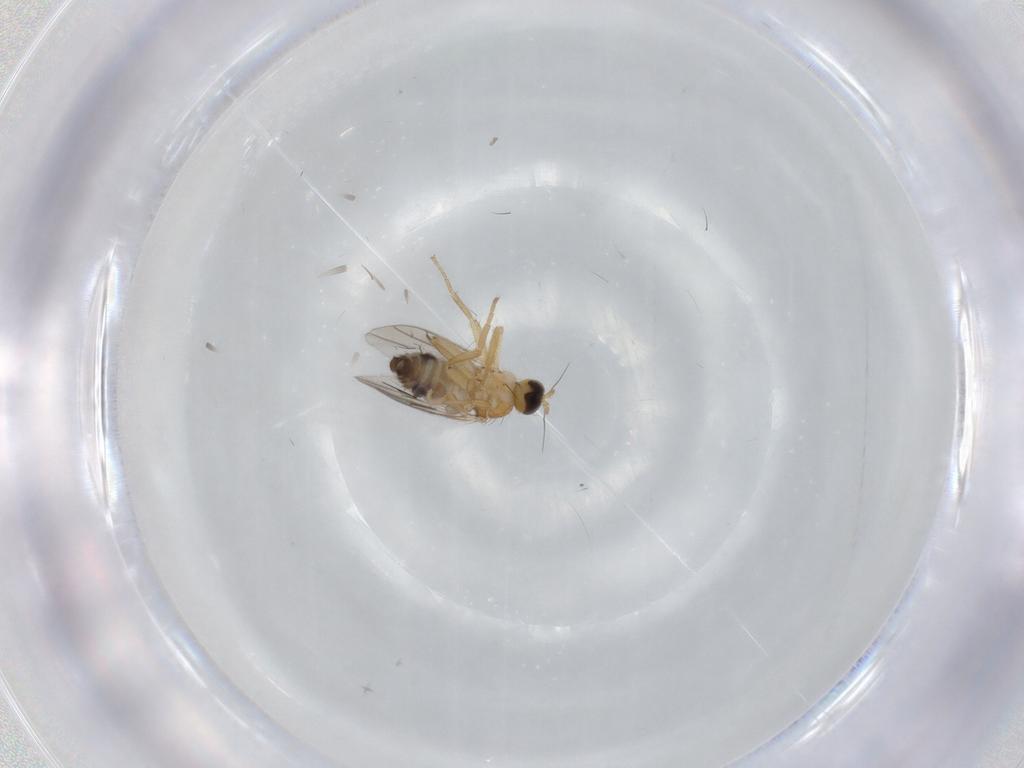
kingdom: Animalia
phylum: Arthropoda
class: Insecta
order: Diptera
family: Hybotidae
